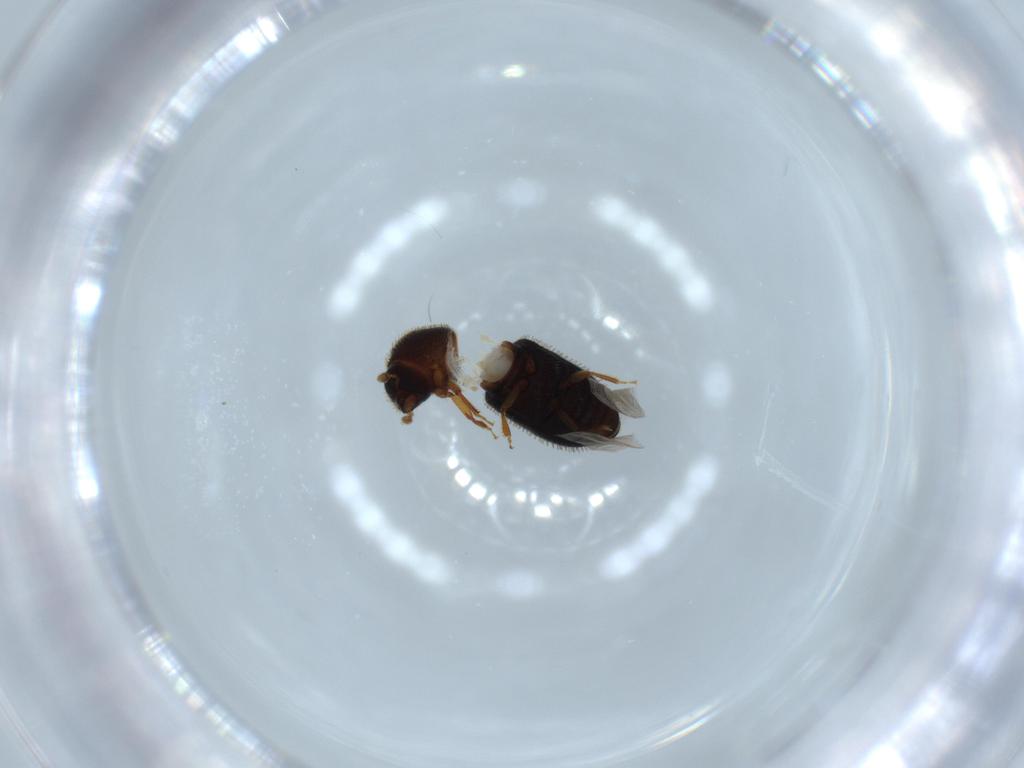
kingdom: Animalia
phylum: Arthropoda
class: Insecta
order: Coleoptera
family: Curculionidae
